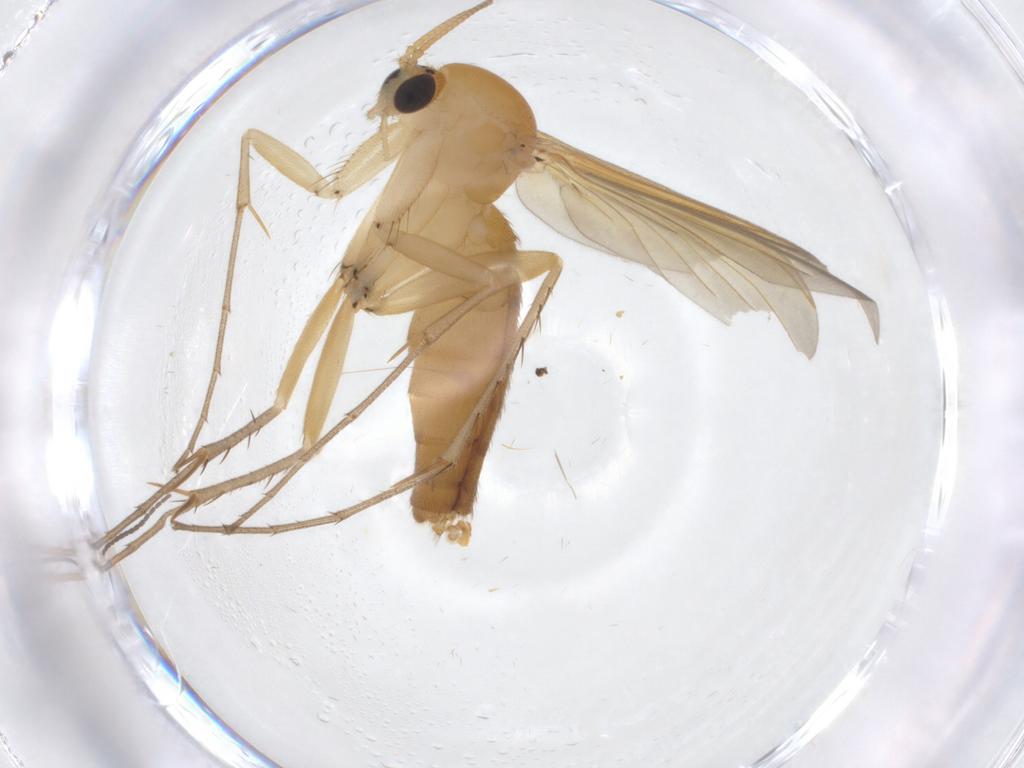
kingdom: Animalia
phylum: Arthropoda
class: Insecta
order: Diptera
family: Mycetophilidae
